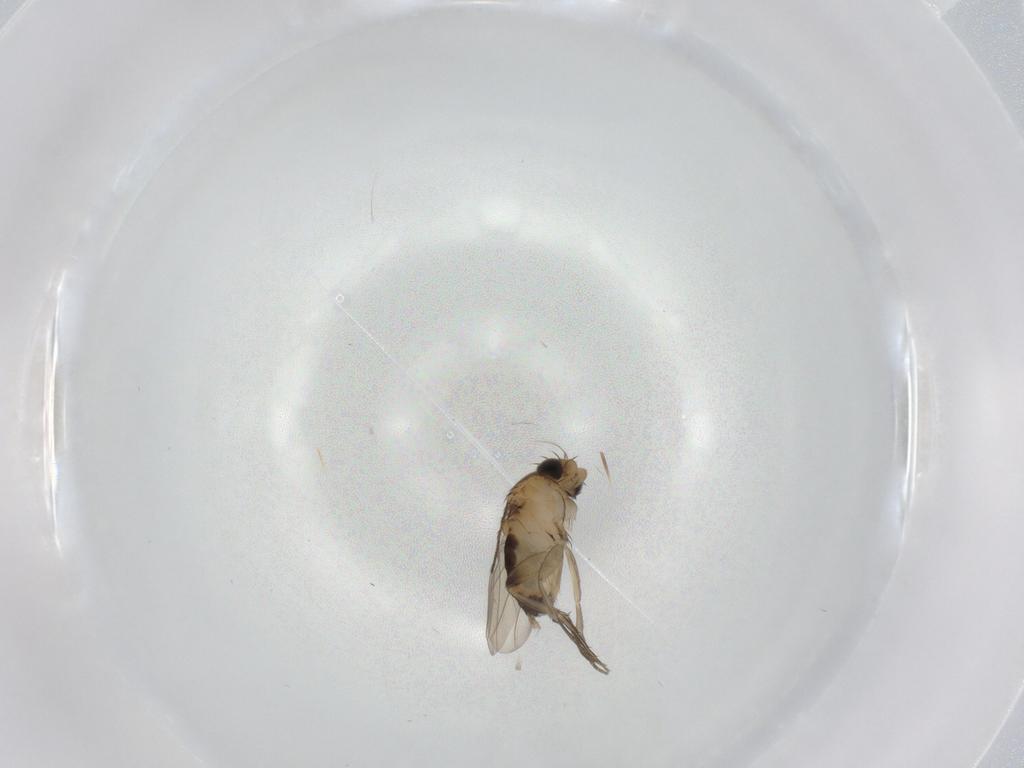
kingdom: Animalia
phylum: Arthropoda
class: Insecta
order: Diptera
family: Phoridae
